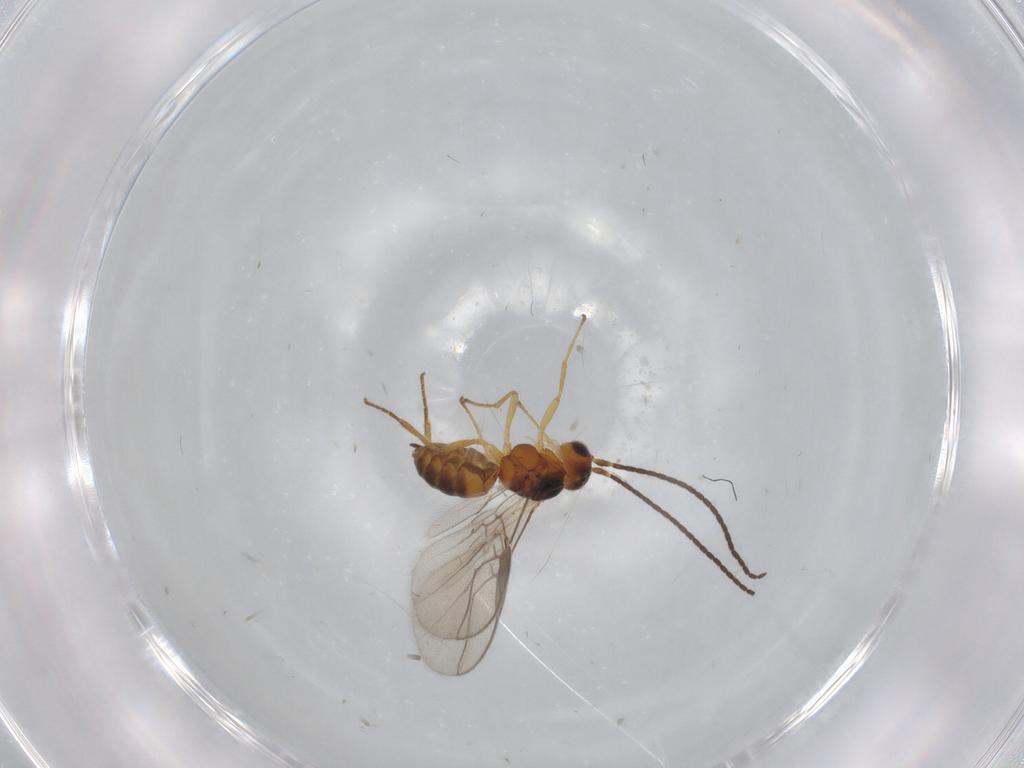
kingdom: Animalia
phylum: Arthropoda
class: Insecta
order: Hymenoptera
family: Braconidae
